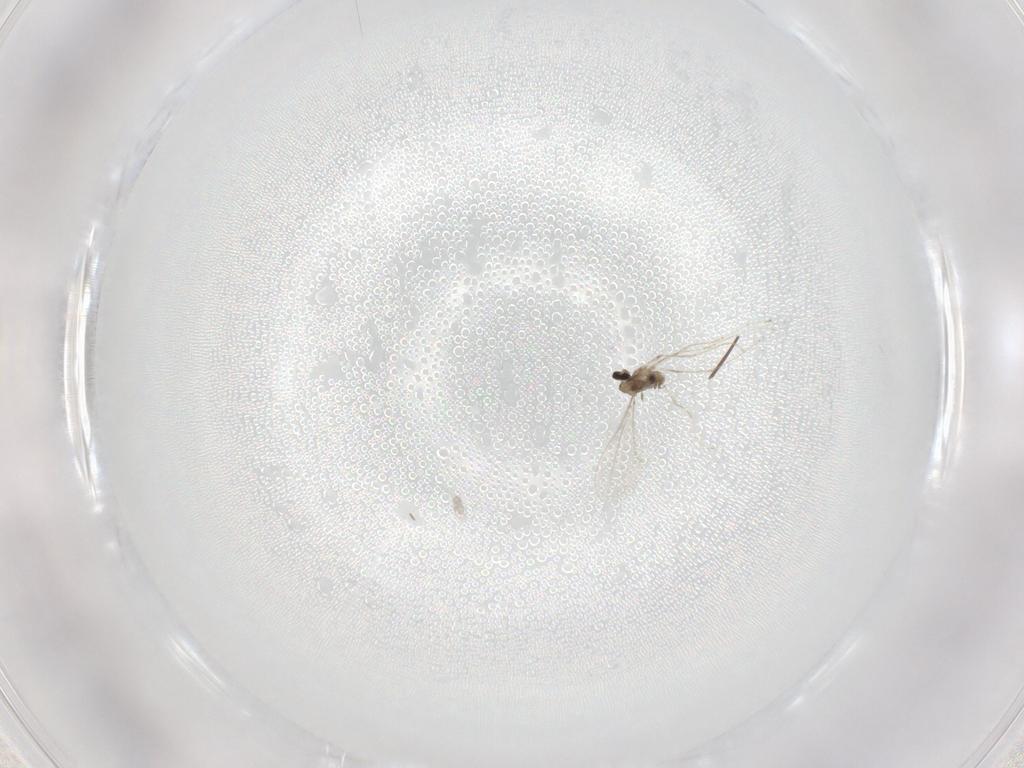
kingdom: Animalia
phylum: Arthropoda
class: Insecta
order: Diptera
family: Cecidomyiidae
